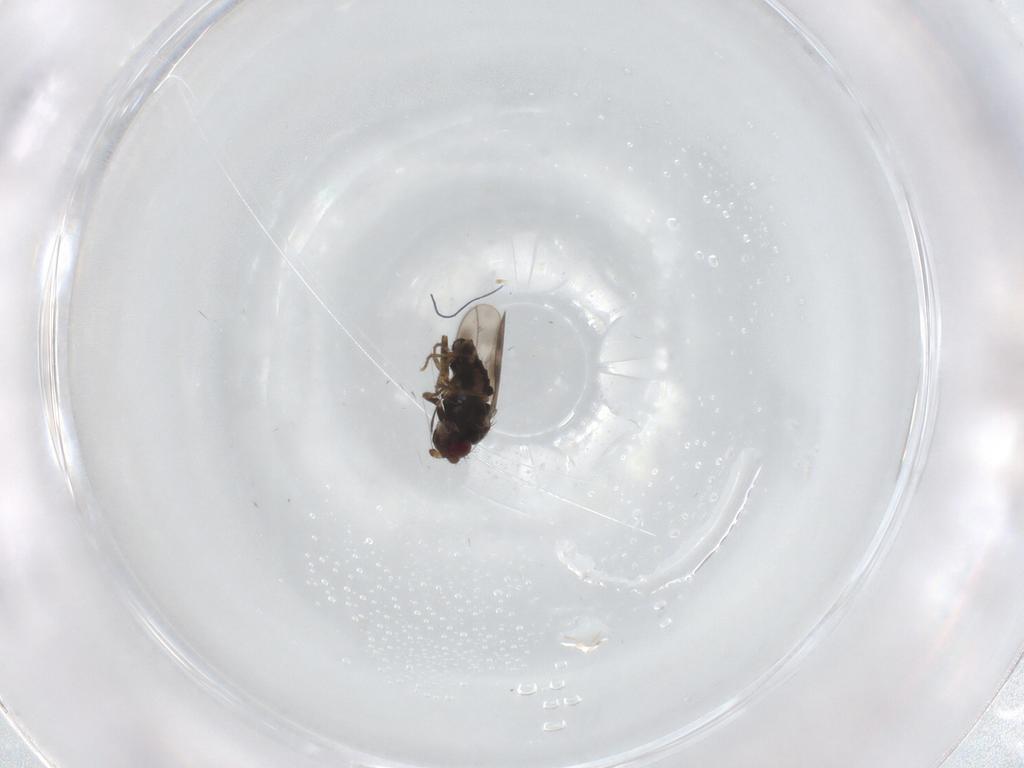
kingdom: Animalia
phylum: Arthropoda
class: Insecta
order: Diptera
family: Sphaeroceridae
